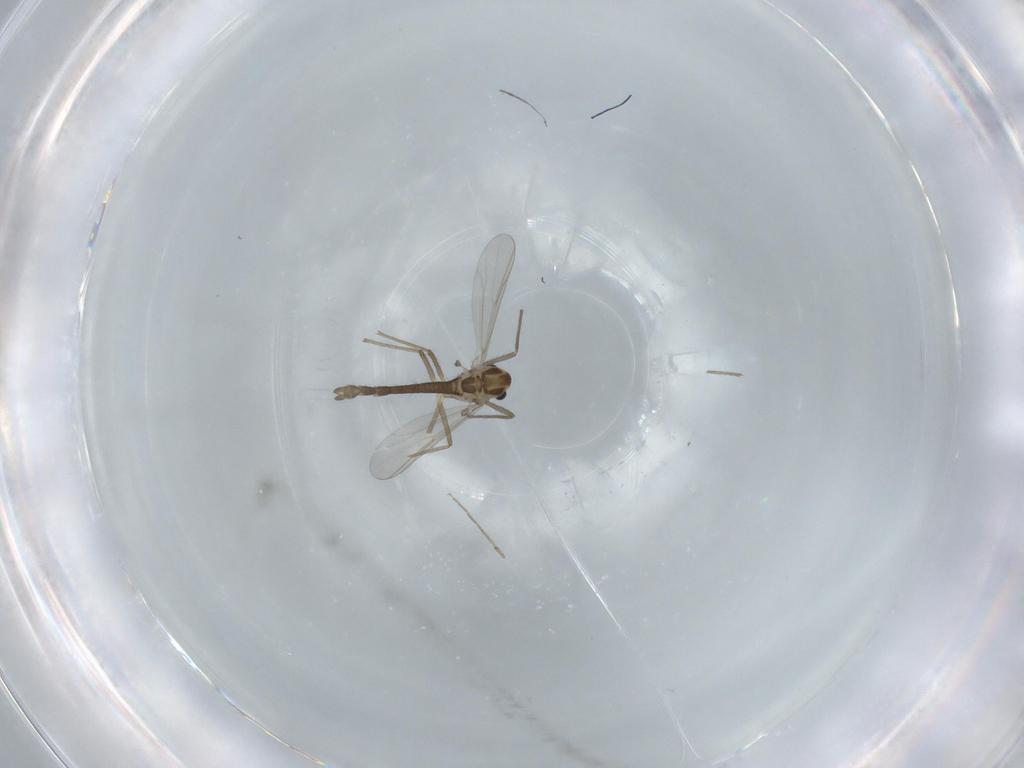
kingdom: Animalia
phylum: Arthropoda
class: Insecta
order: Diptera
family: Chironomidae
